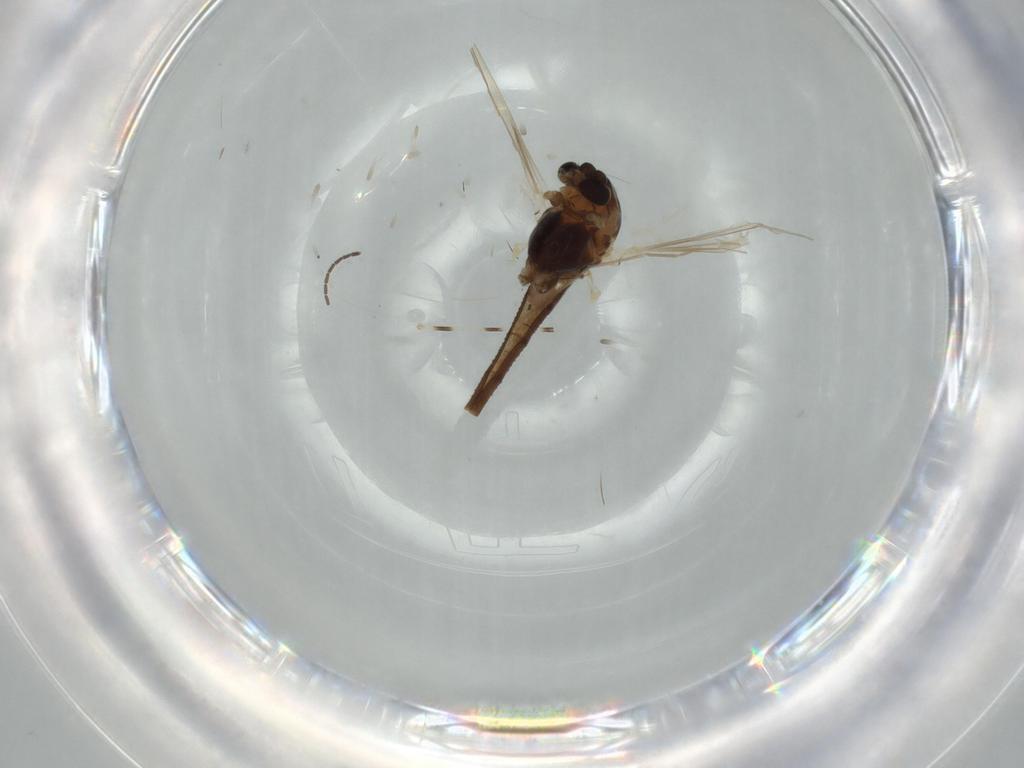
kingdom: Animalia
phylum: Arthropoda
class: Insecta
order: Diptera
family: Chironomidae
